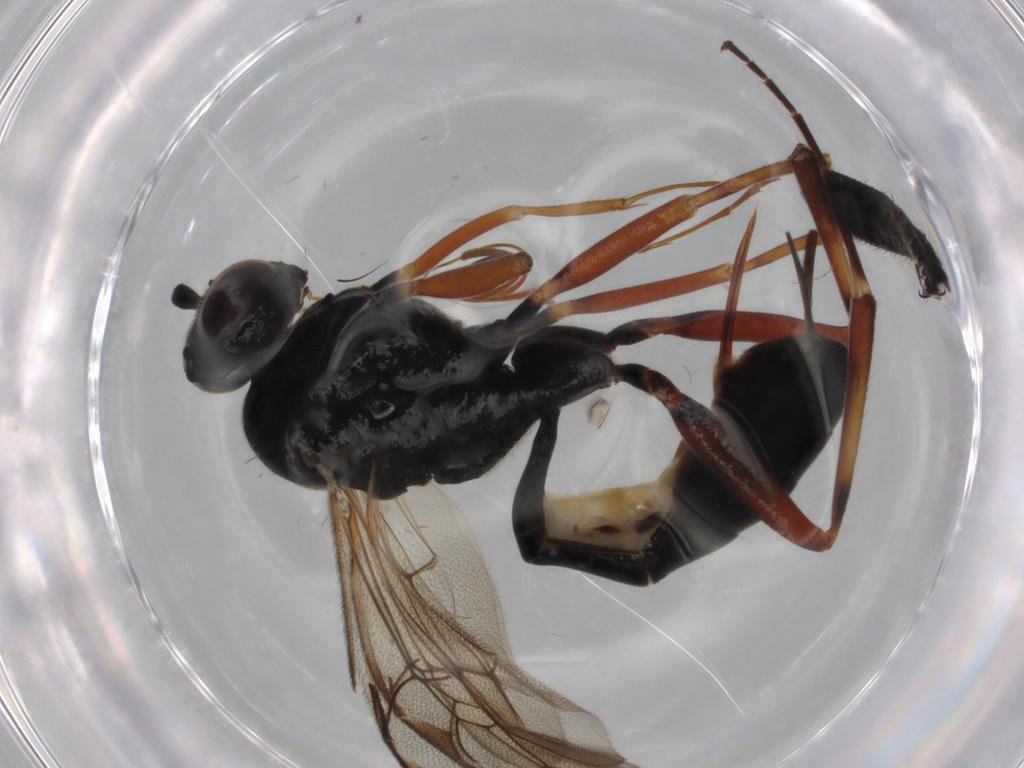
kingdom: Animalia
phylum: Arthropoda
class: Insecta
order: Hymenoptera
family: Ichneumonidae
